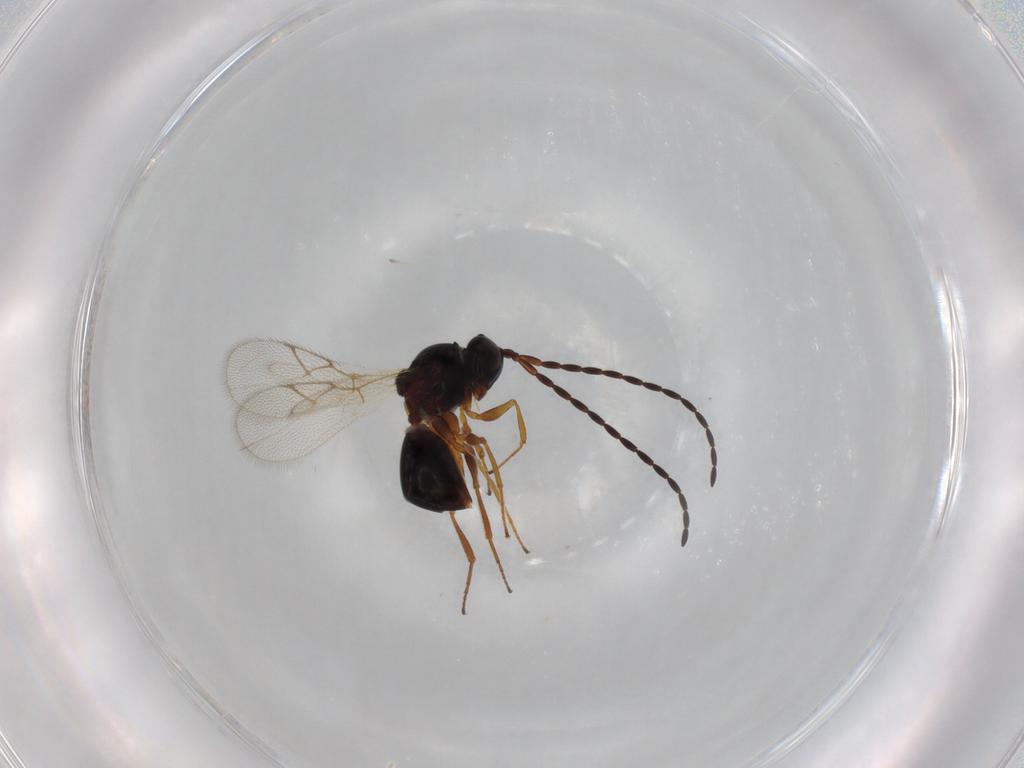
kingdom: Animalia
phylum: Arthropoda
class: Insecta
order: Hymenoptera
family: Figitidae
